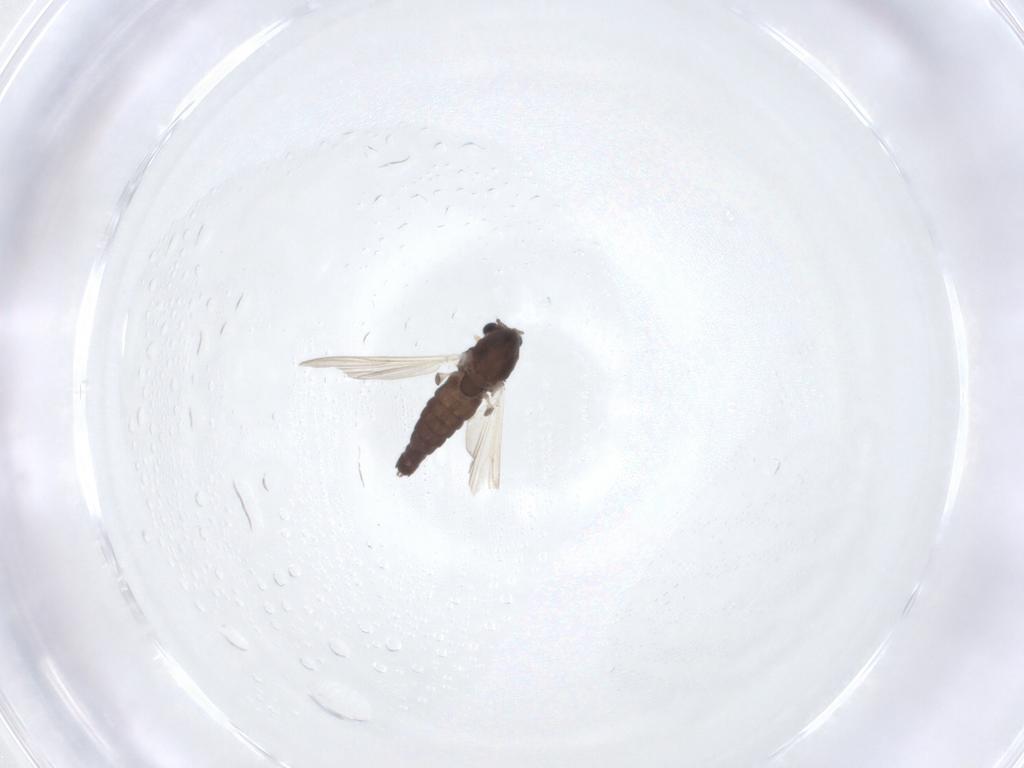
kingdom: Animalia
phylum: Arthropoda
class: Insecta
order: Diptera
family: Chironomidae
